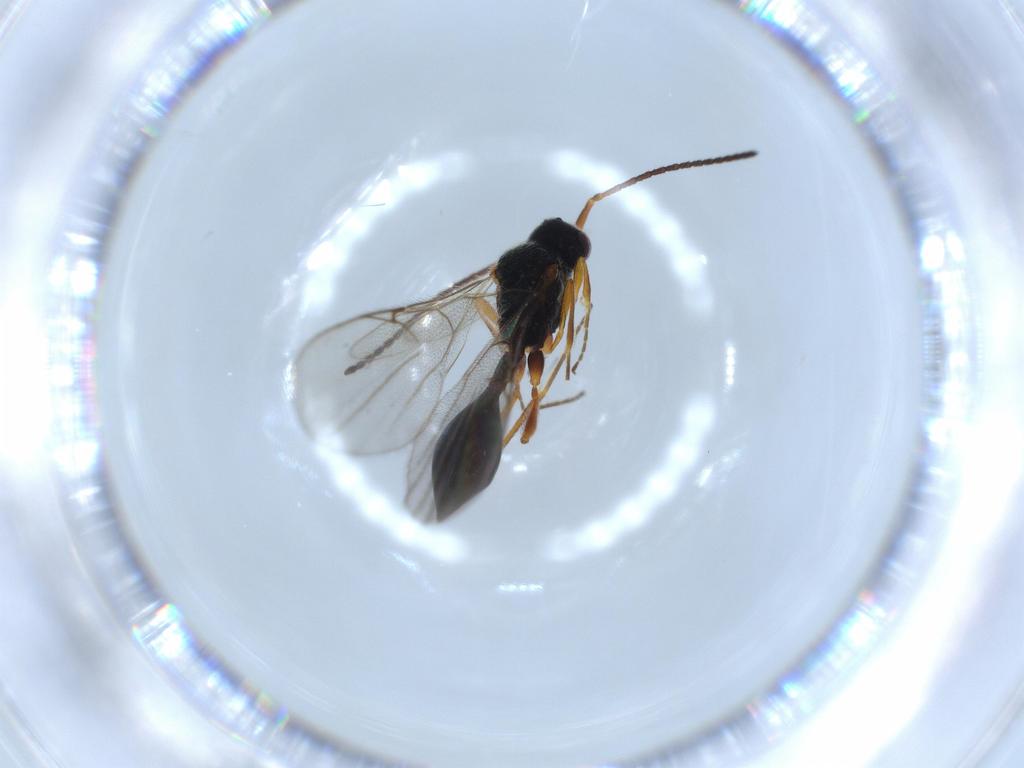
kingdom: Animalia
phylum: Arthropoda
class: Insecta
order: Hymenoptera
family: Diapriidae
